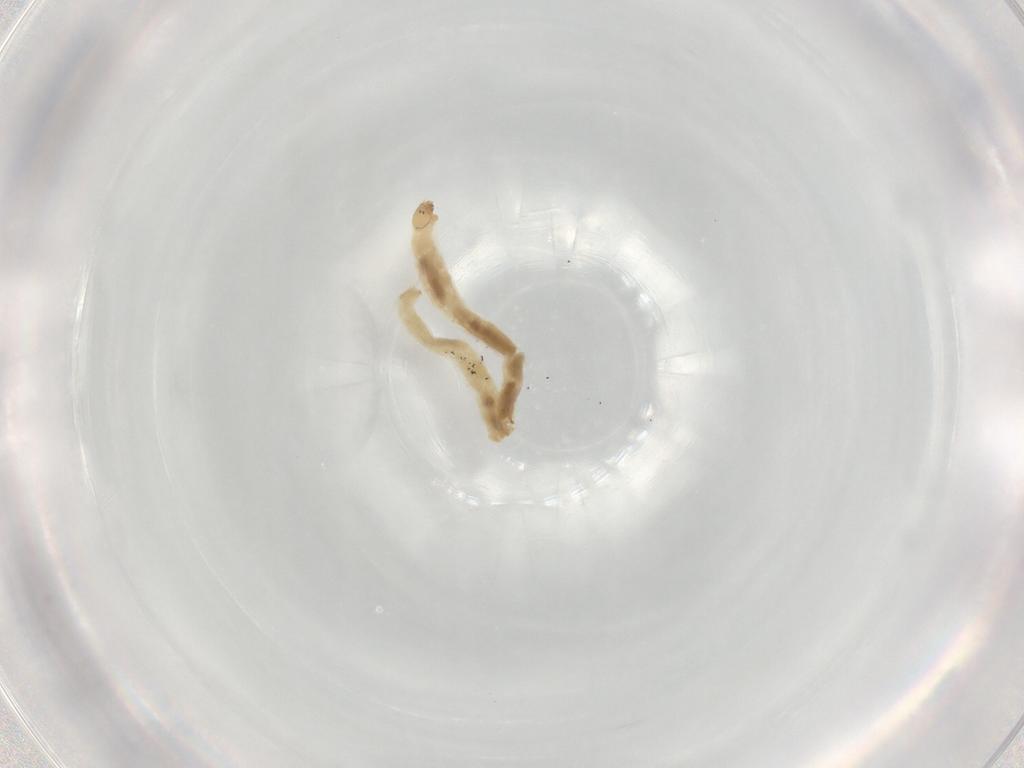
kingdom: Animalia
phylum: Arthropoda
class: Insecta
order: Diptera
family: Chironomidae
